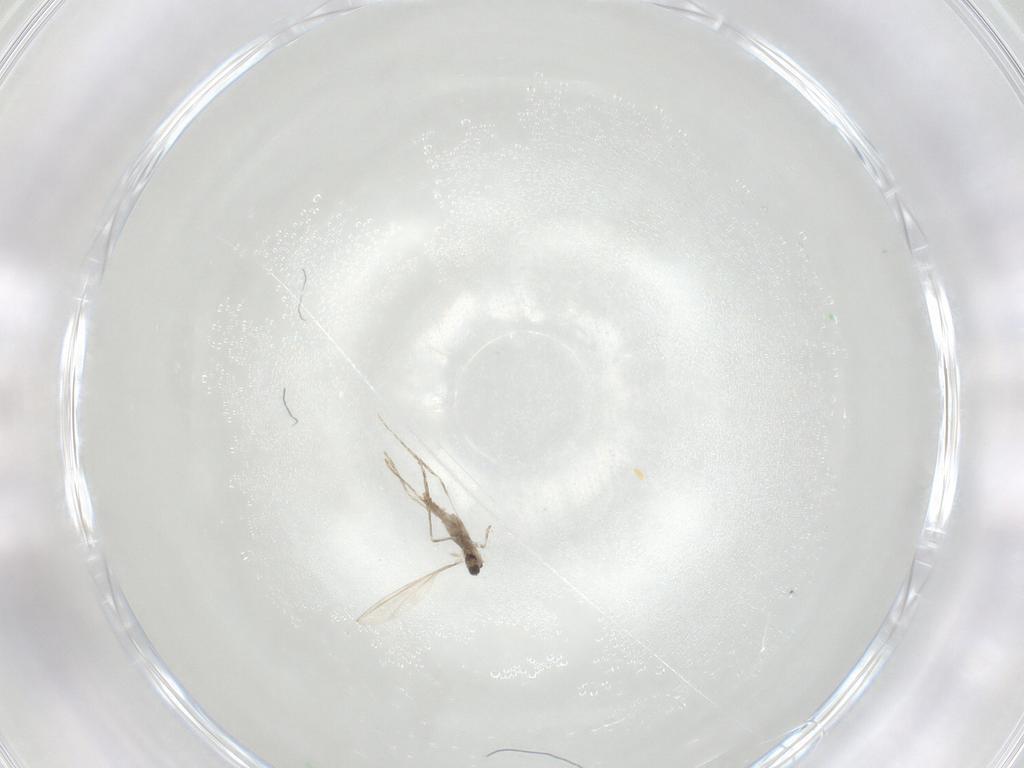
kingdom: Animalia
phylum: Arthropoda
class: Insecta
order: Diptera
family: Cecidomyiidae
